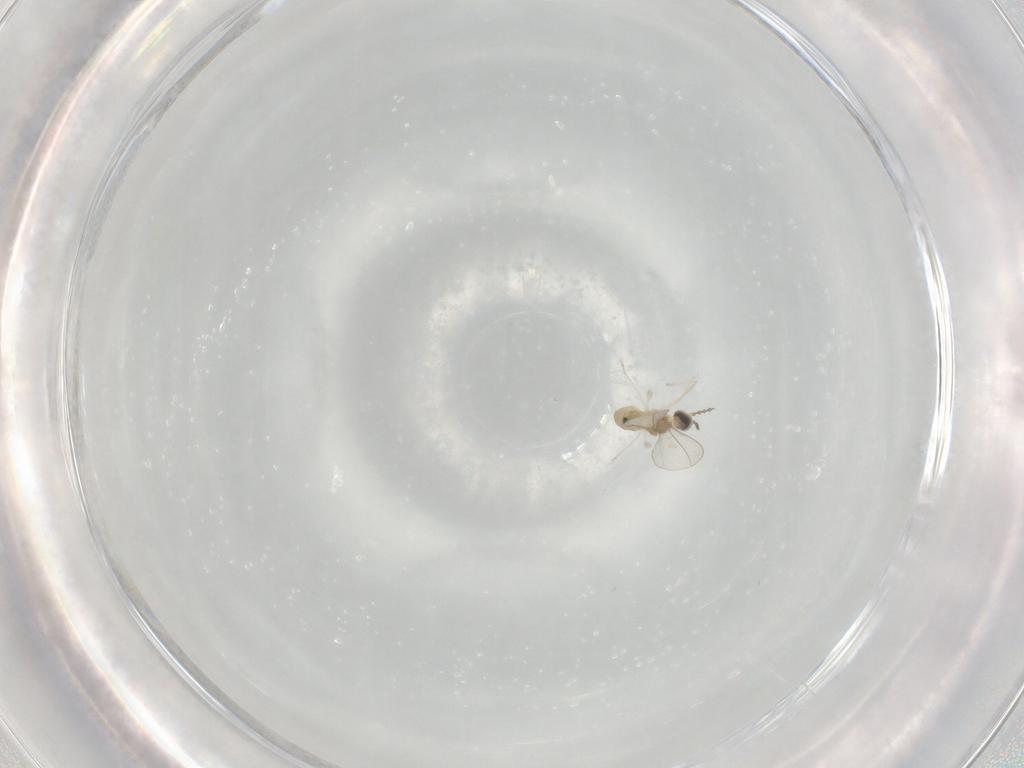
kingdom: Animalia
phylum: Arthropoda
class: Insecta
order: Diptera
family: Cecidomyiidae
